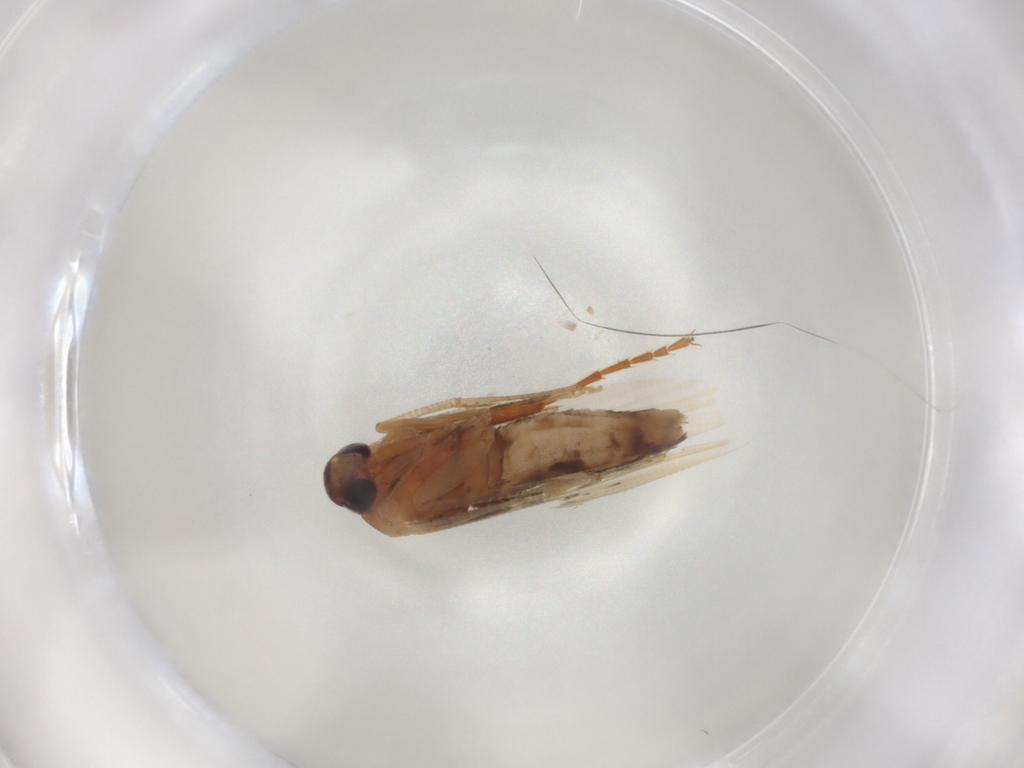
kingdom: Animalia
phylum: Arthropoda
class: Insecta
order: Lepidoptera
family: Cosmopterigidae
